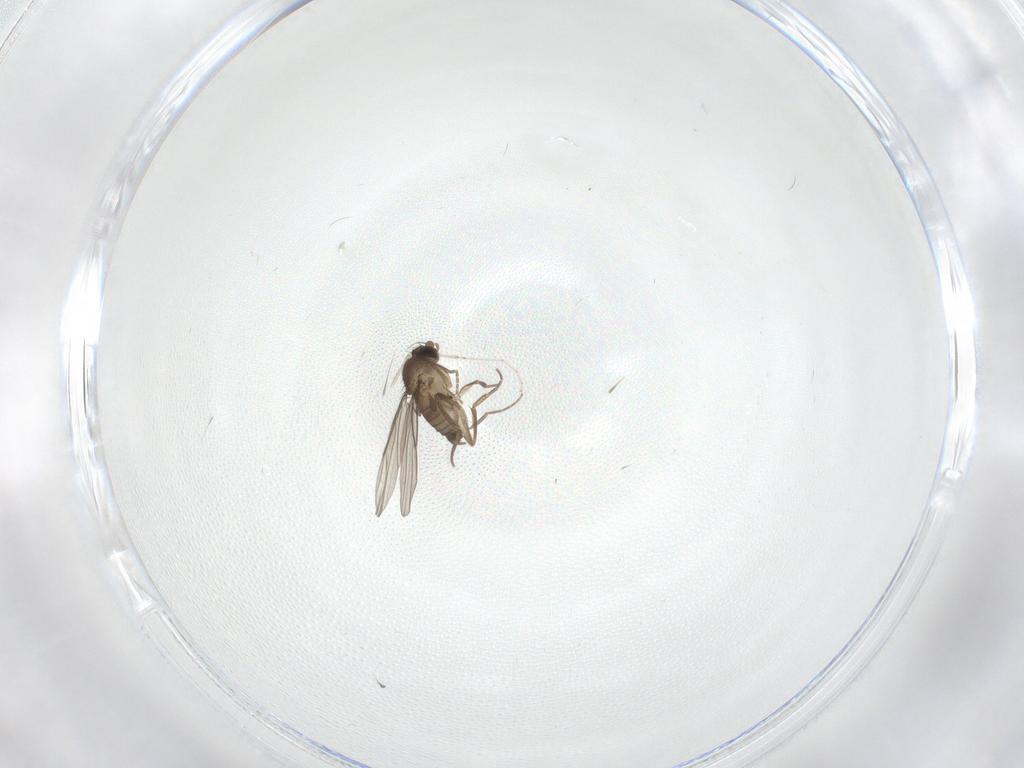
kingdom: Animalia
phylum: Arthropoda
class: Insecta
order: Diptera
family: Cecidomyiidae
